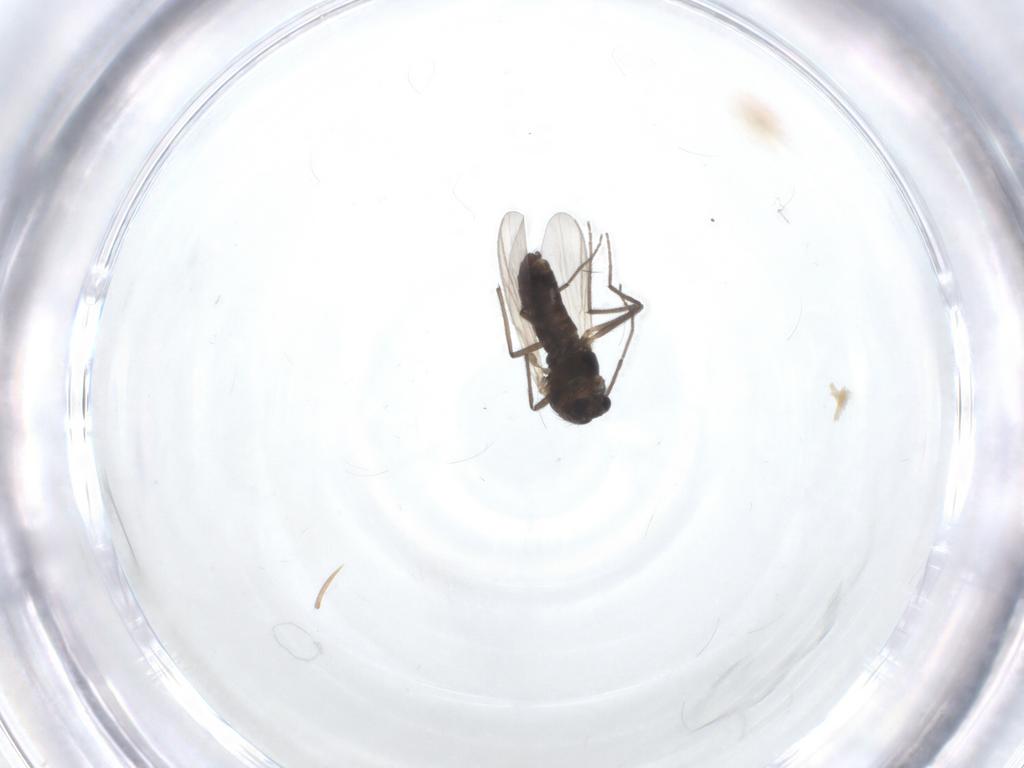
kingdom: Animalia
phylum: Arthropoda
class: Insecta
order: Diptera
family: Chironomidae
